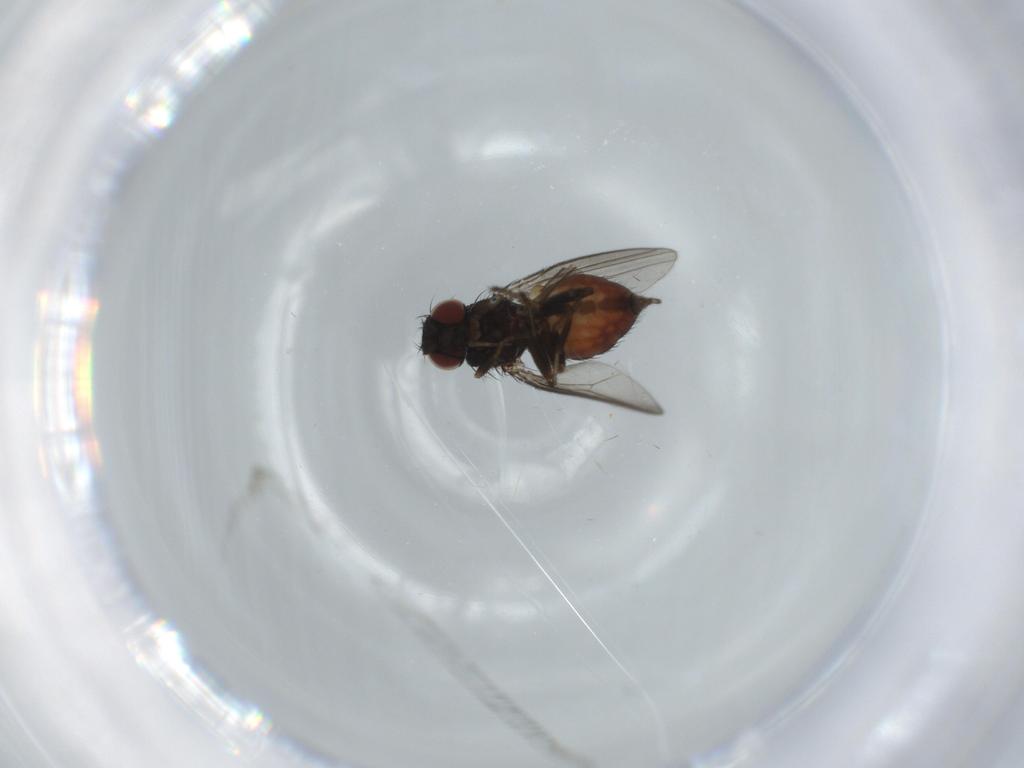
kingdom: Animalia
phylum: Arthropoda
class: Insecta
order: Diptera
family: Milichiidae
